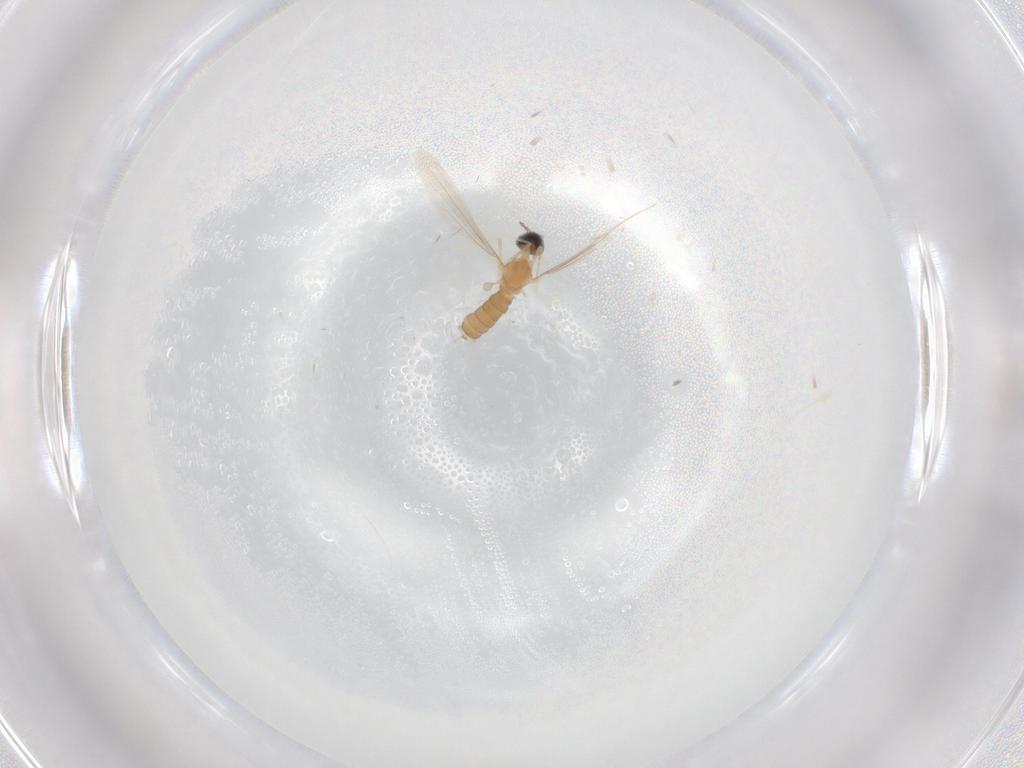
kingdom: Animalia
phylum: Arthropoda
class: Insecta
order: Diptera
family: Cecidomyiidae
